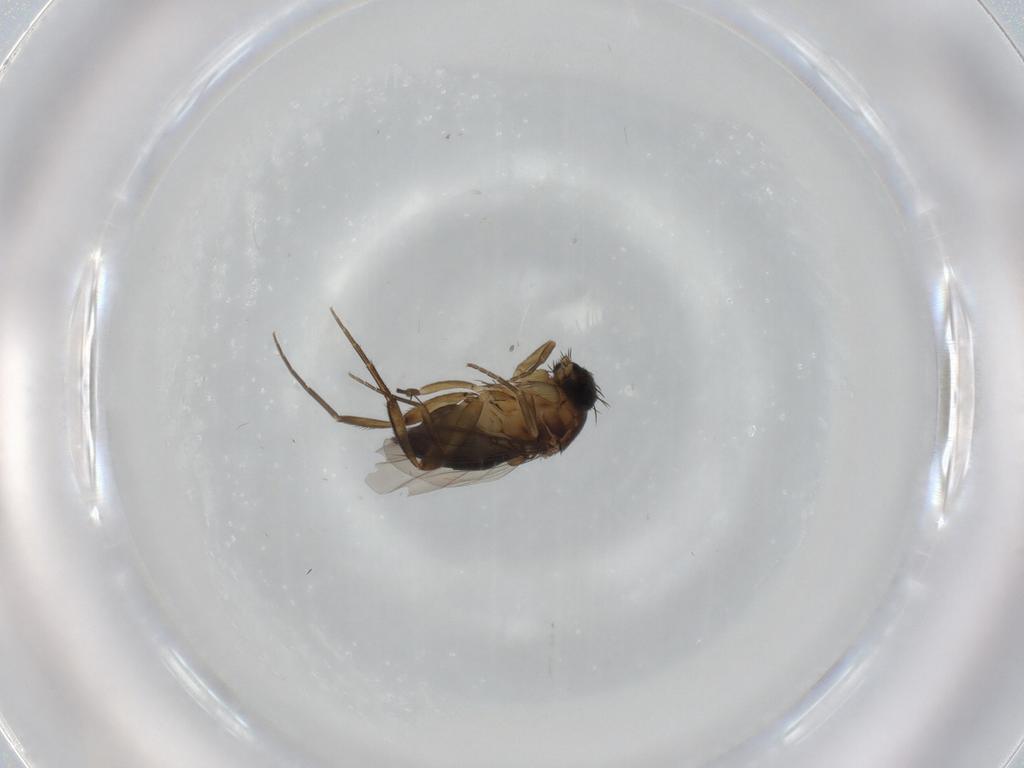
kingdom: Animalia
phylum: Arthropoda
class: Insecta
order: Diptera
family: Phoridae
